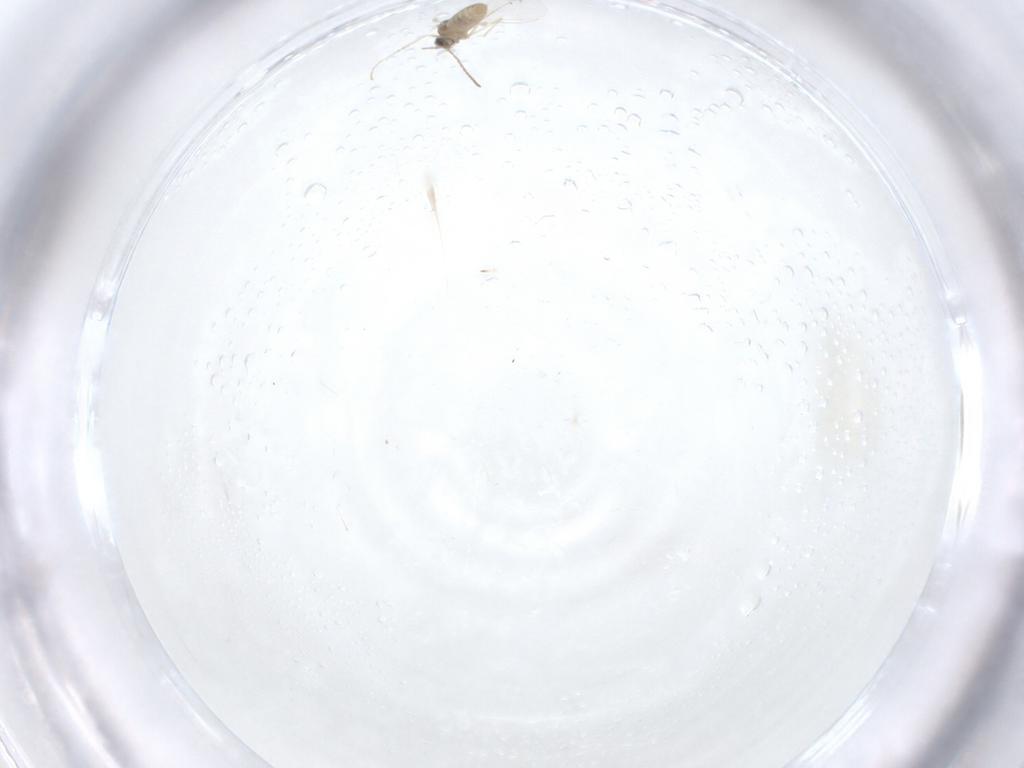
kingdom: Animalia
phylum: Arthropoda
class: Insecta
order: Diptera
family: Cecidomyiidae
